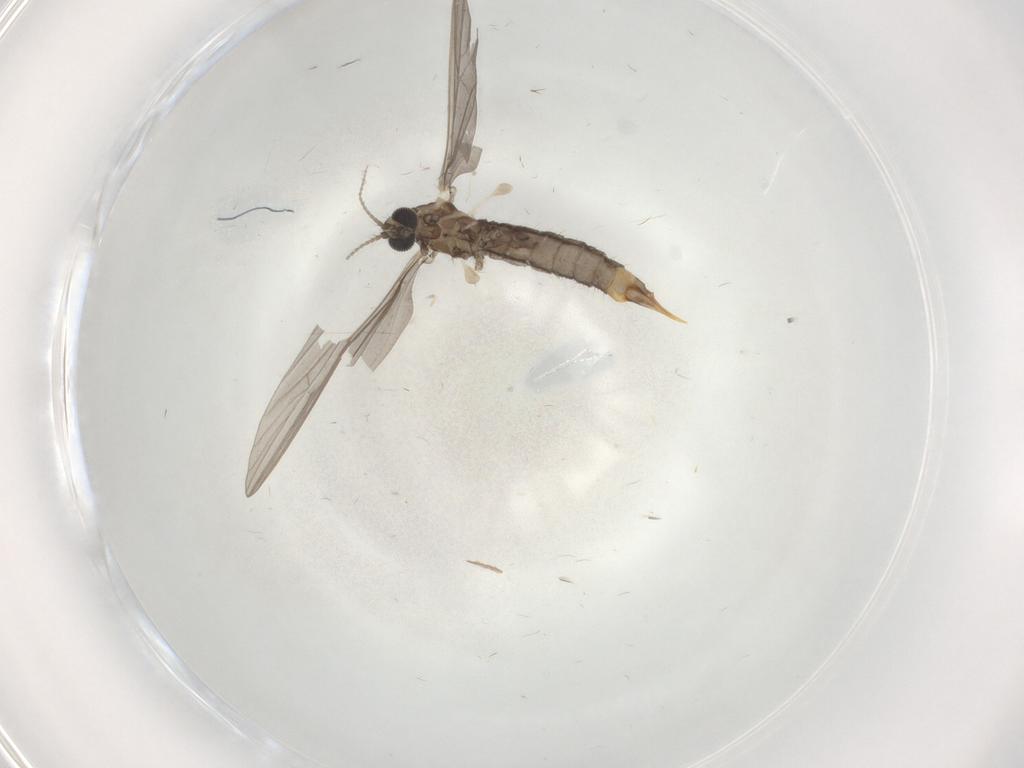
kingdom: Animalia
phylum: Arthropoda
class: Insecta
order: Diptera
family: Limoniidae
